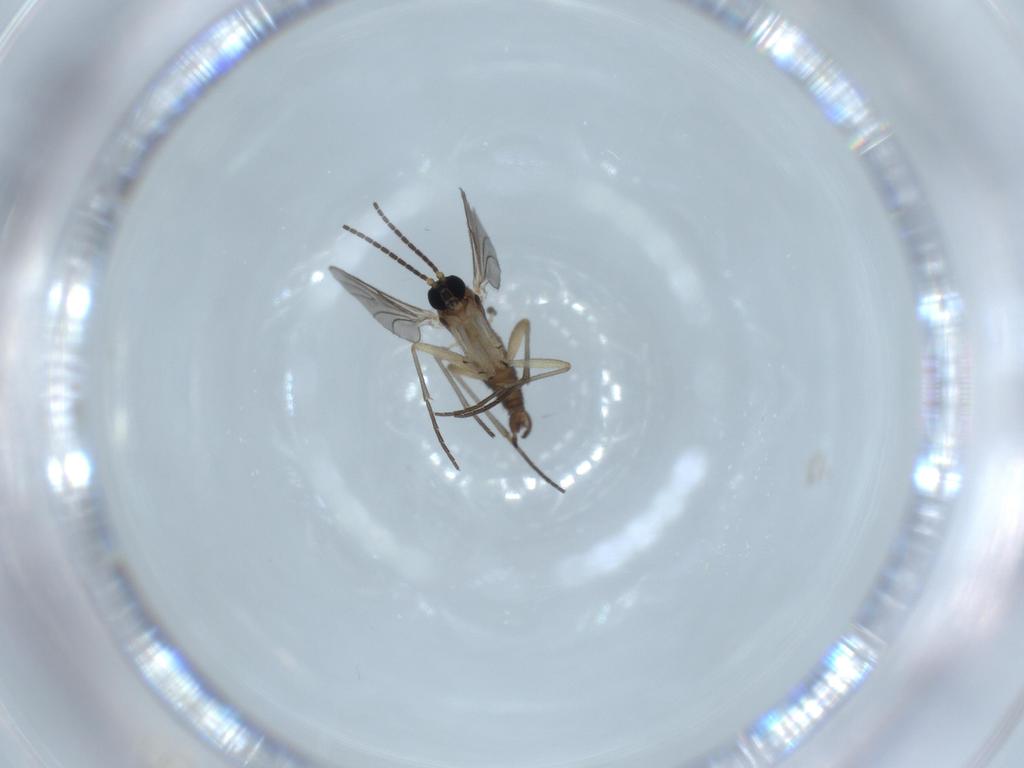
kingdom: Animalia
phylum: Arthropoda
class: Insecta
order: Diptera
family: Sciaridae
